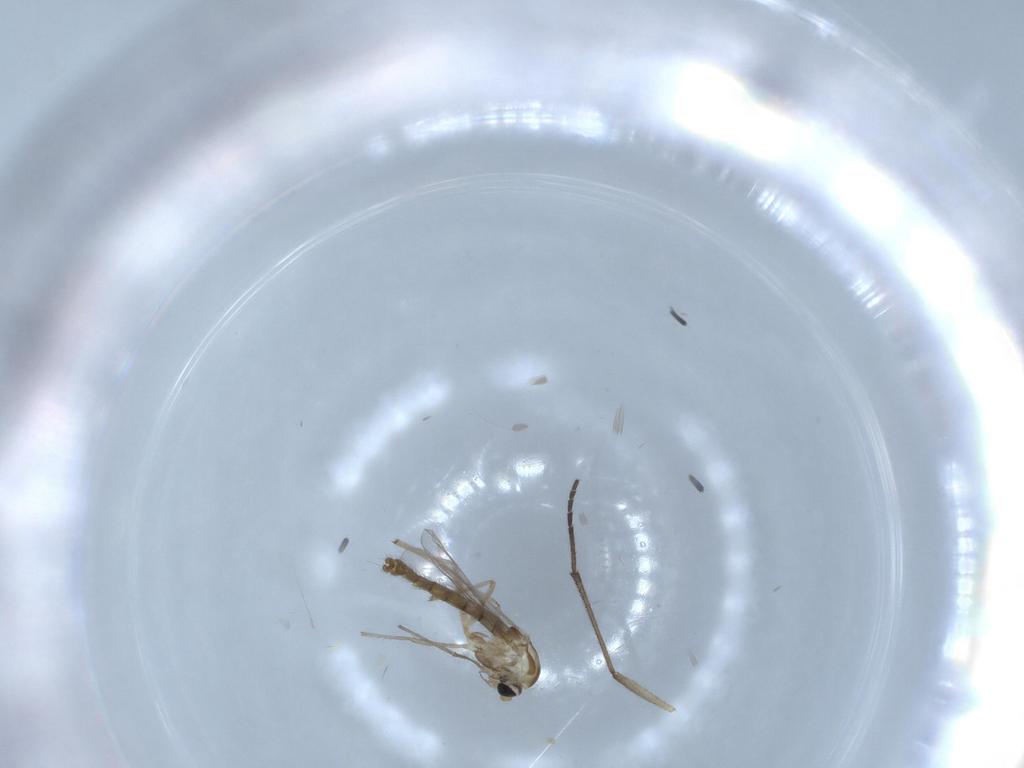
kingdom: Animalia
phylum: Arthropoda
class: Insecta
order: Diptera
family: Chironomidae
